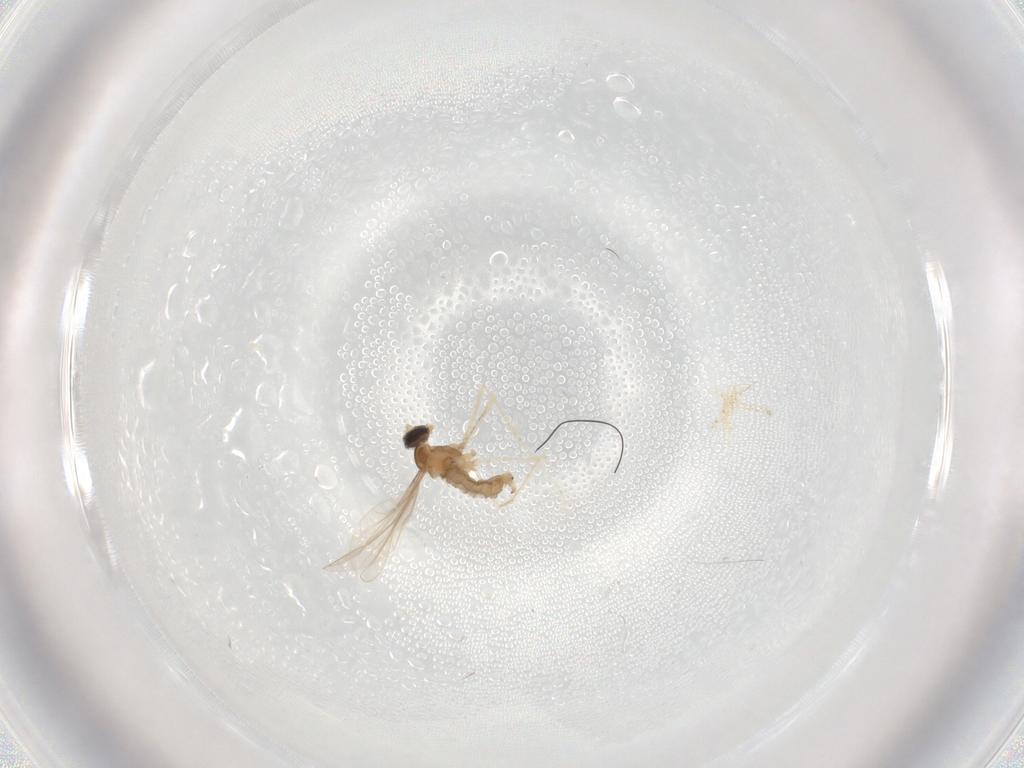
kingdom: Animalia
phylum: Arthropoda
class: Insecta
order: Diptera
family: Cecidomyiidae
